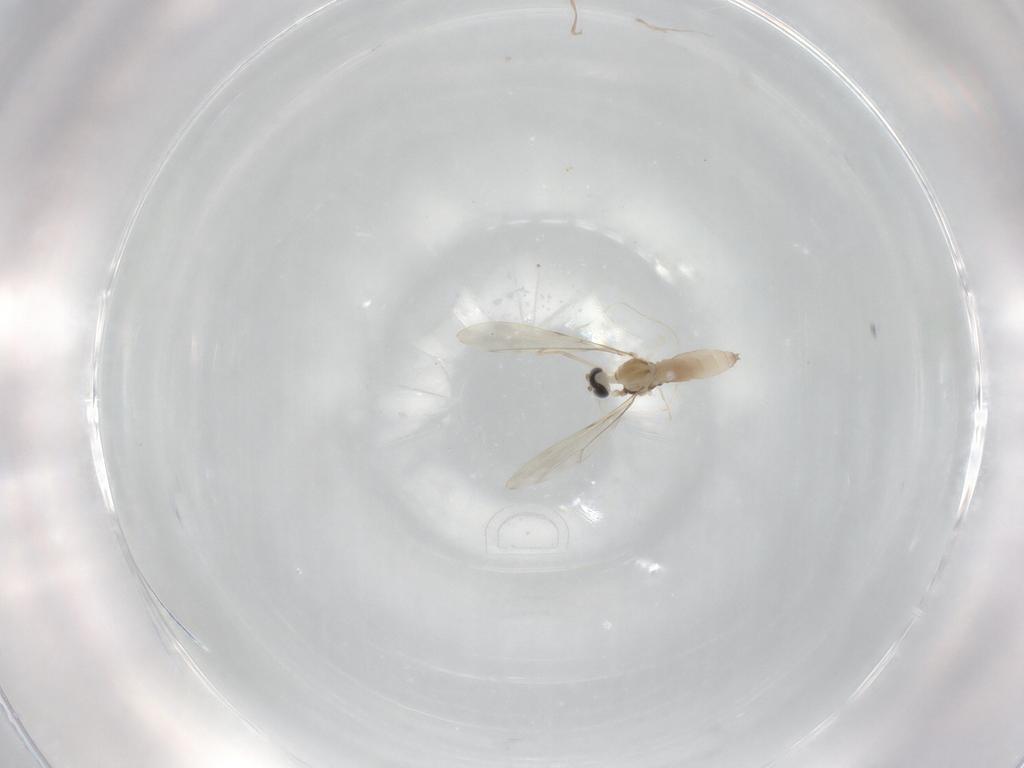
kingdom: Animalia
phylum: Arthropoda
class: Insecta
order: Diptera
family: Cecidomyiidae
